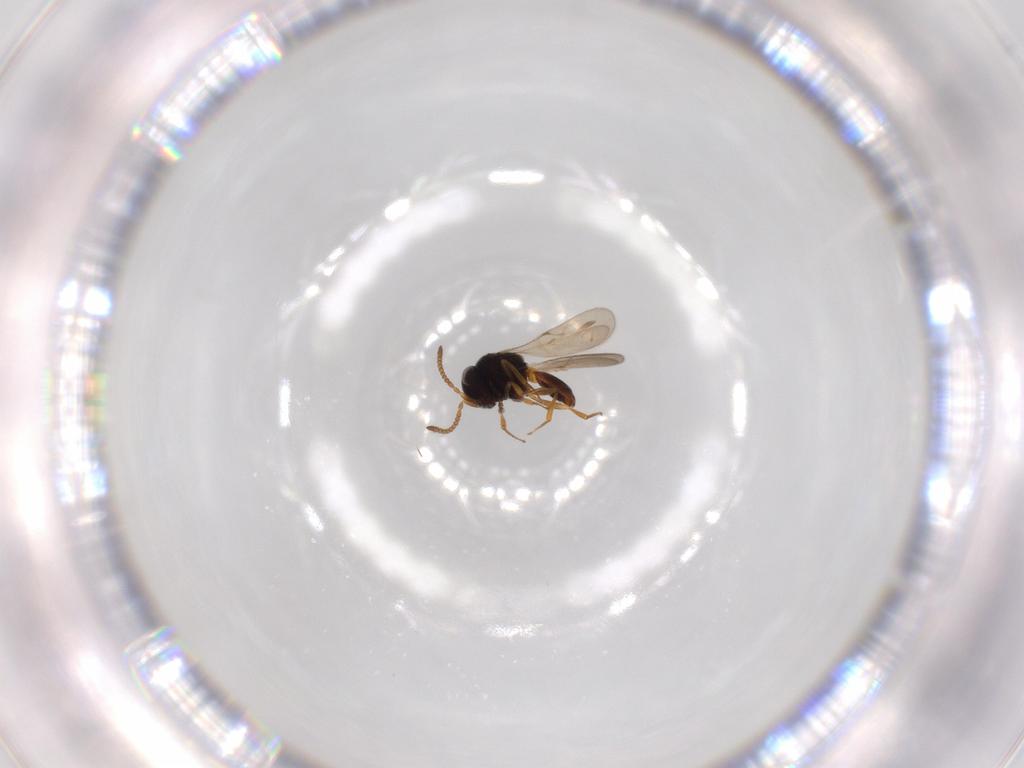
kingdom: Animalia
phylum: Arthropoda
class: Insecta
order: Hymenoptera
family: Scelionidae
